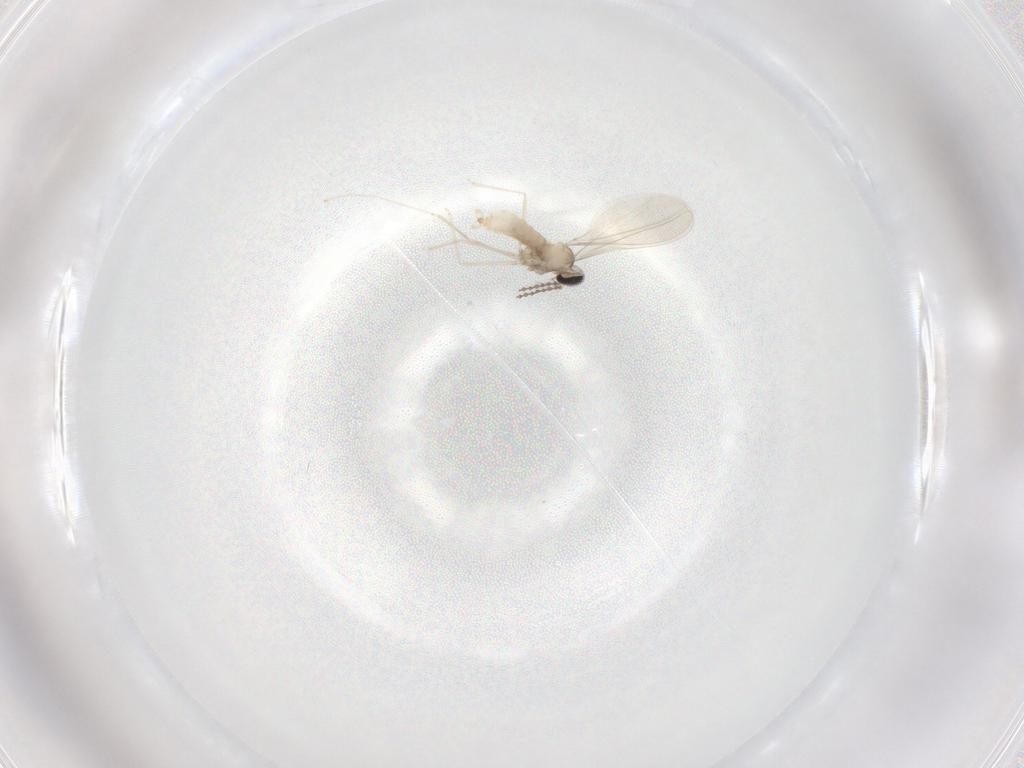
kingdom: Animalia
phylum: Arthropoda
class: Insecta
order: Diptera
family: Cecidomyiidae
